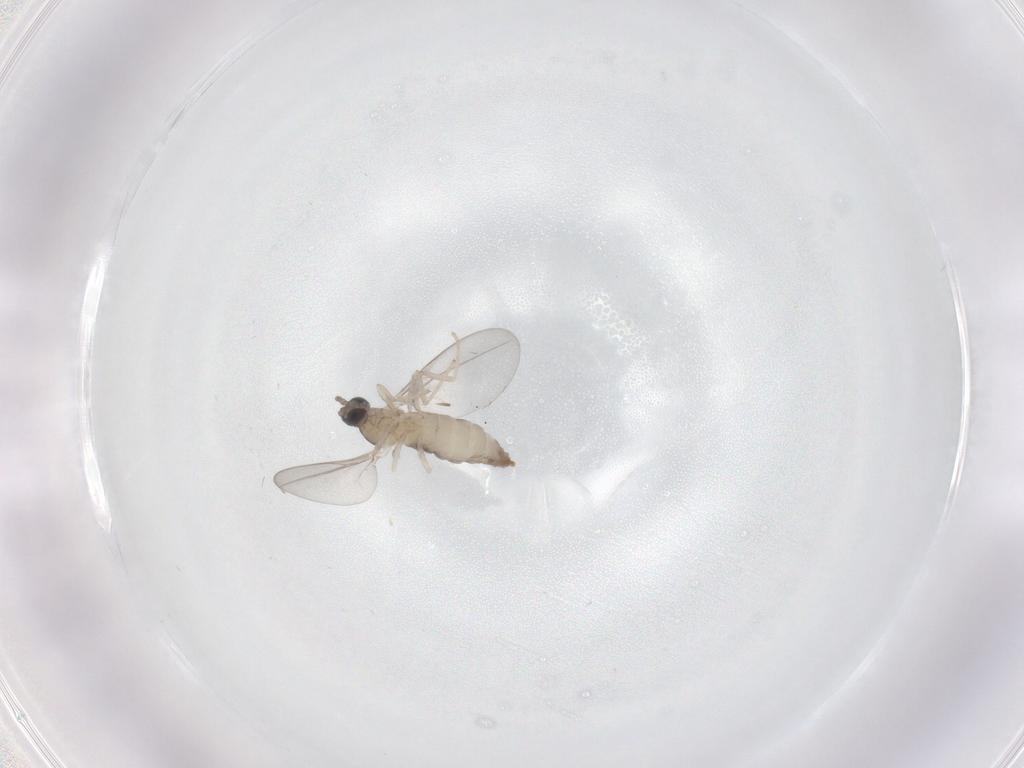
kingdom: Animalia
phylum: Arthropoda
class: Insecta
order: Diptera
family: Cecidomyiidae
